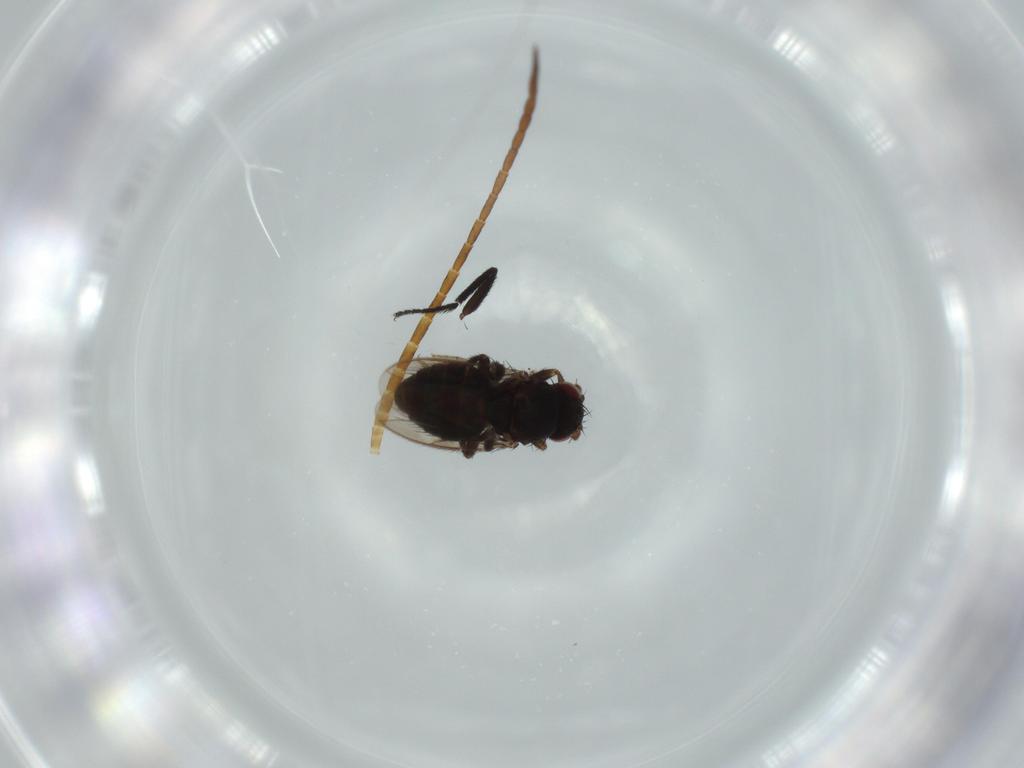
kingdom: Animalia
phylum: Arthropoda
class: Insecta
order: Diptera
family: Sphaeroceridae
